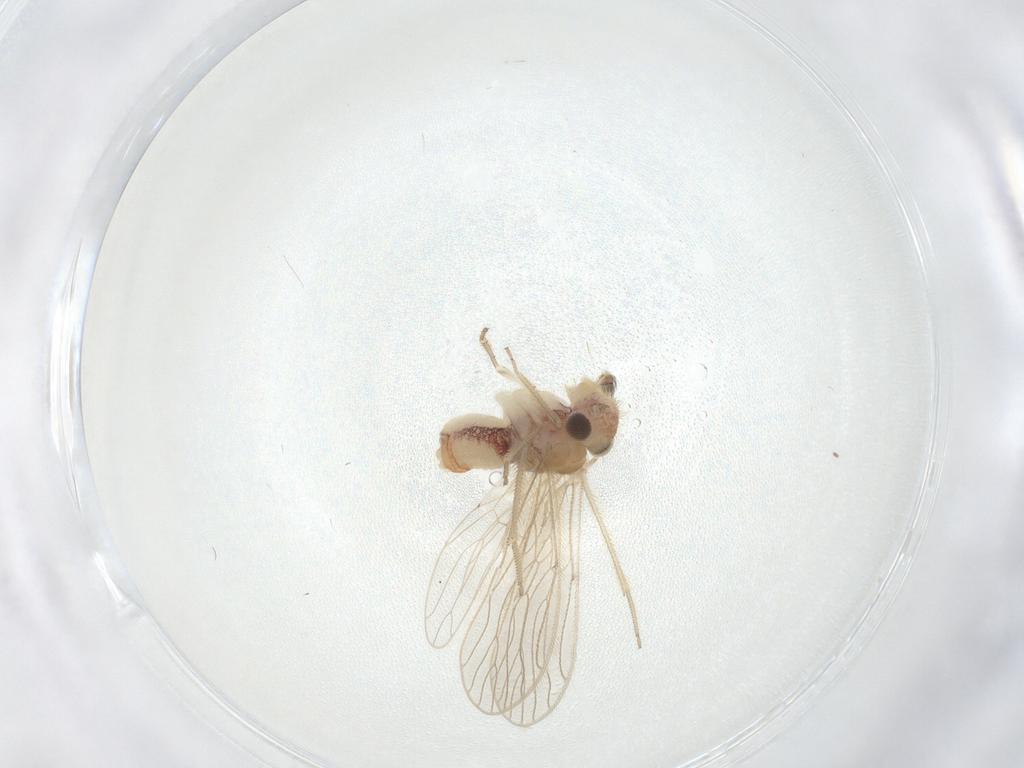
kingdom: Animalia
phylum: Arthropoda
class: Insecta
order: Psocodea
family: Cladiopsocidae
